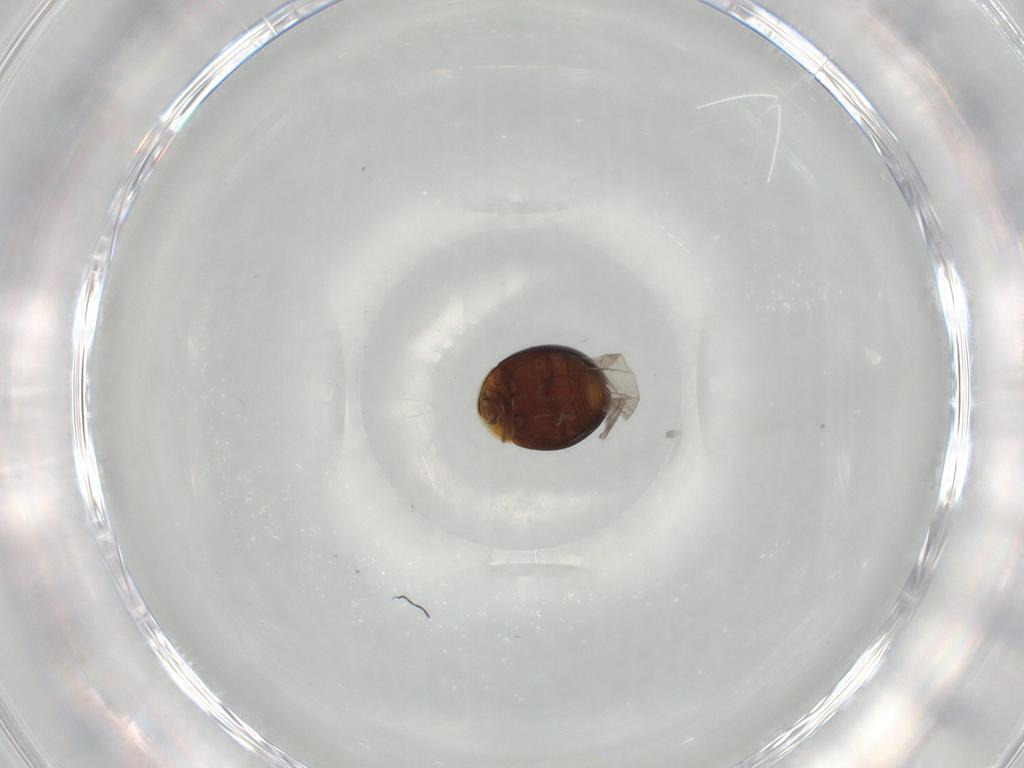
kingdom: Animalia
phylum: Arthropoda
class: Insecta
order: Coleoptera
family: Corylophidae
